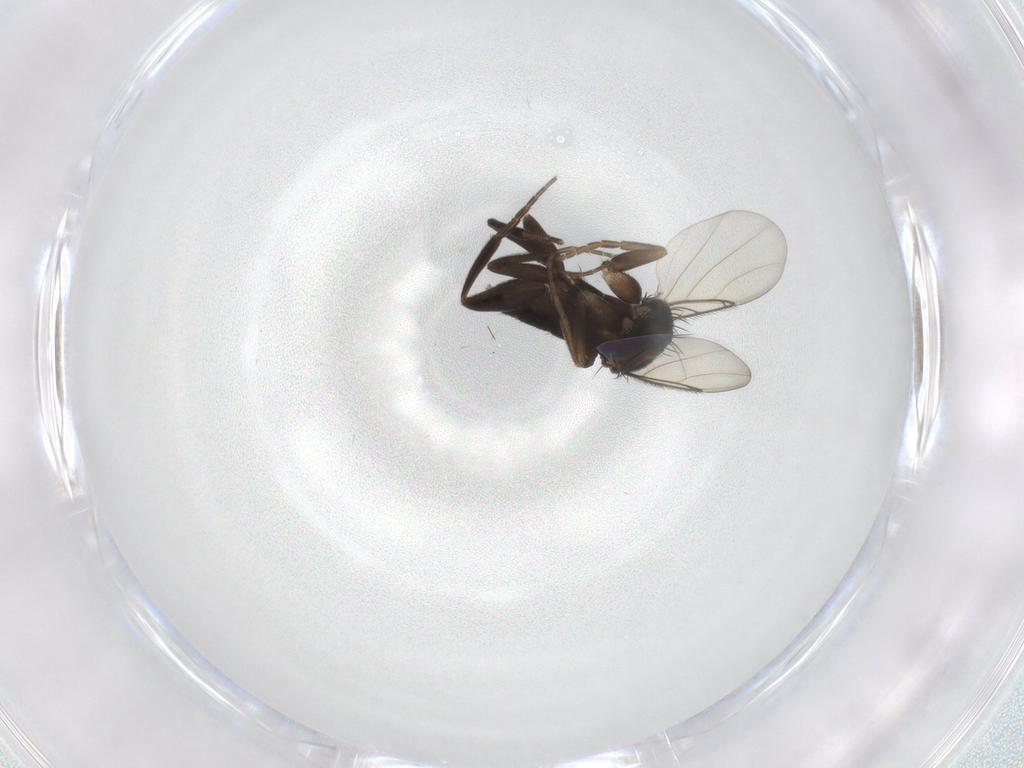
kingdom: Animalia
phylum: Arthropoda
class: Insecta
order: Diptera
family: Phoridae
